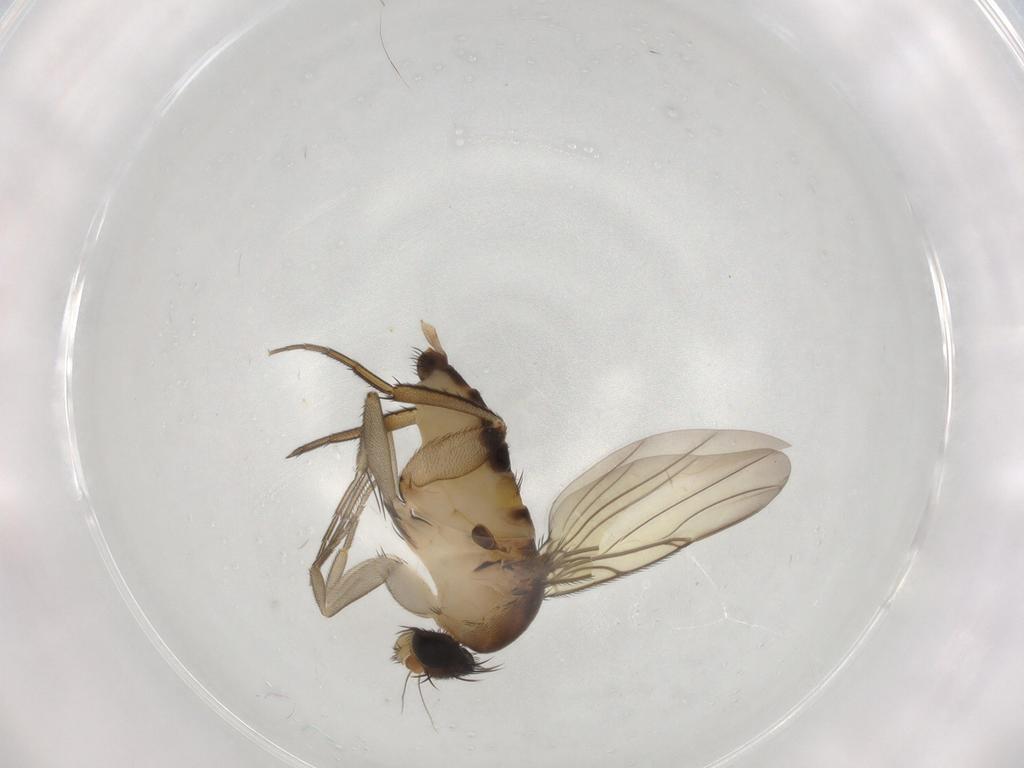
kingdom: Animalia
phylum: Arthropoda
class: Insecta
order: Diptera
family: Phoridae
